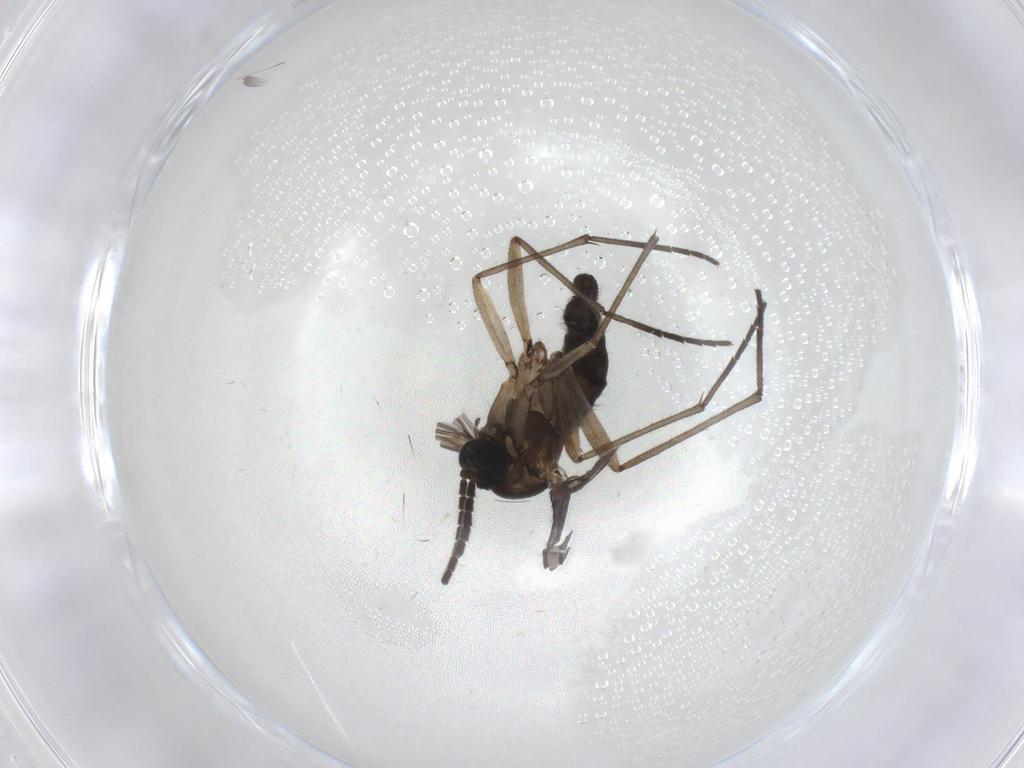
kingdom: Animalia
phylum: Arthropoda
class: Insecta
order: Diptera
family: Sciaridae
